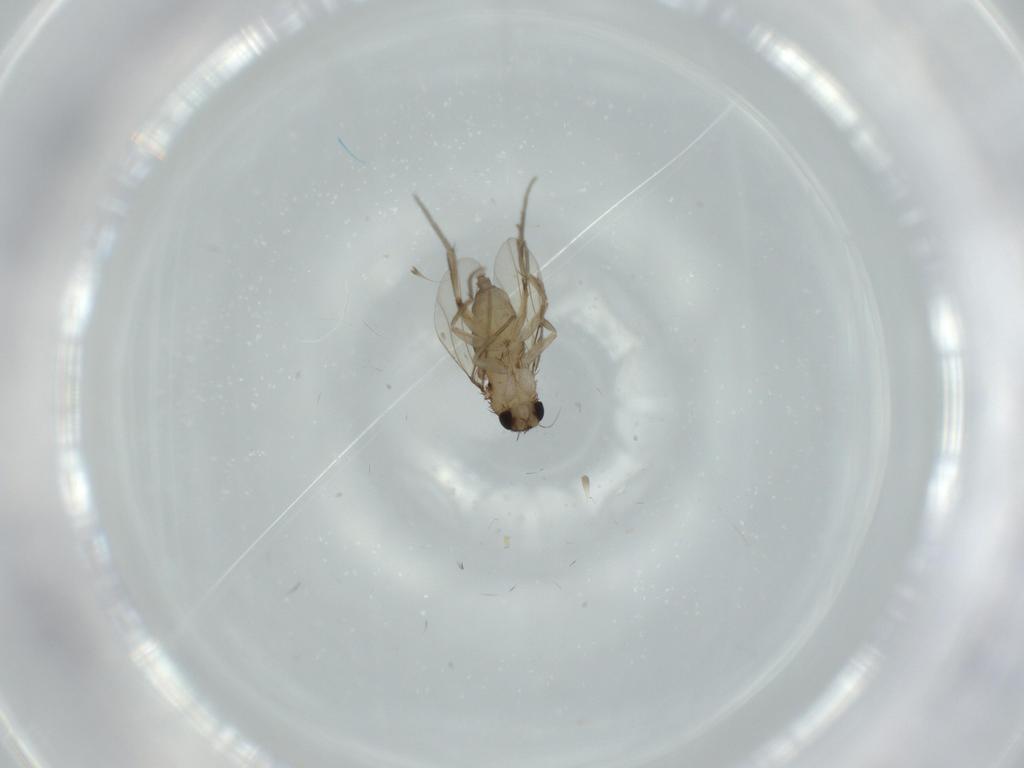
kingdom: Animalia
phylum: Arthropoda
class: Insecta
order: Diptera
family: Phoridae
